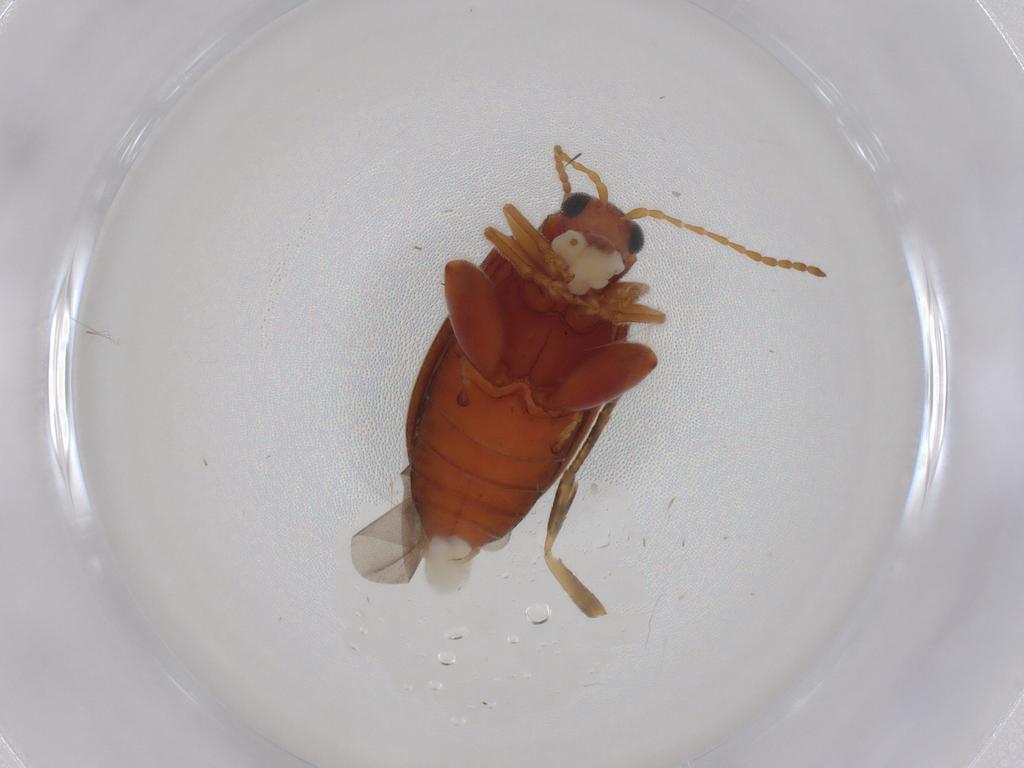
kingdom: Animalia
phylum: Arthropoda
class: Insecta
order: Coleoptera
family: Chrysomelidae
